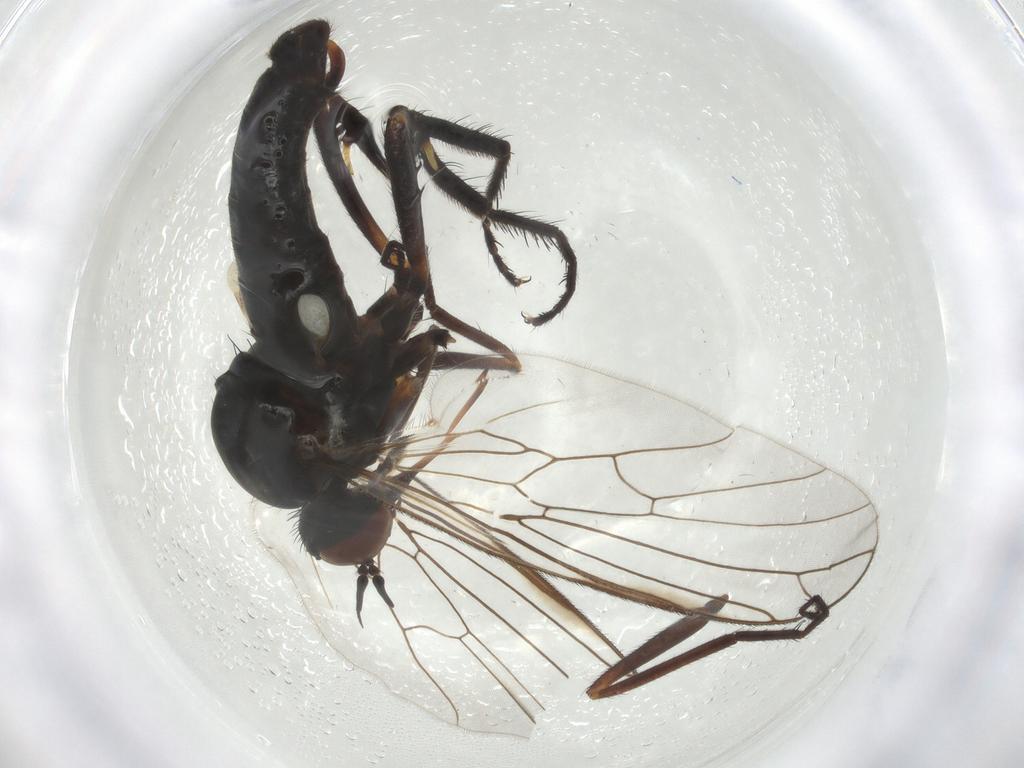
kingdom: Animalia
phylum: Arthropoda
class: Insecta
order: Diptera
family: Empididae
